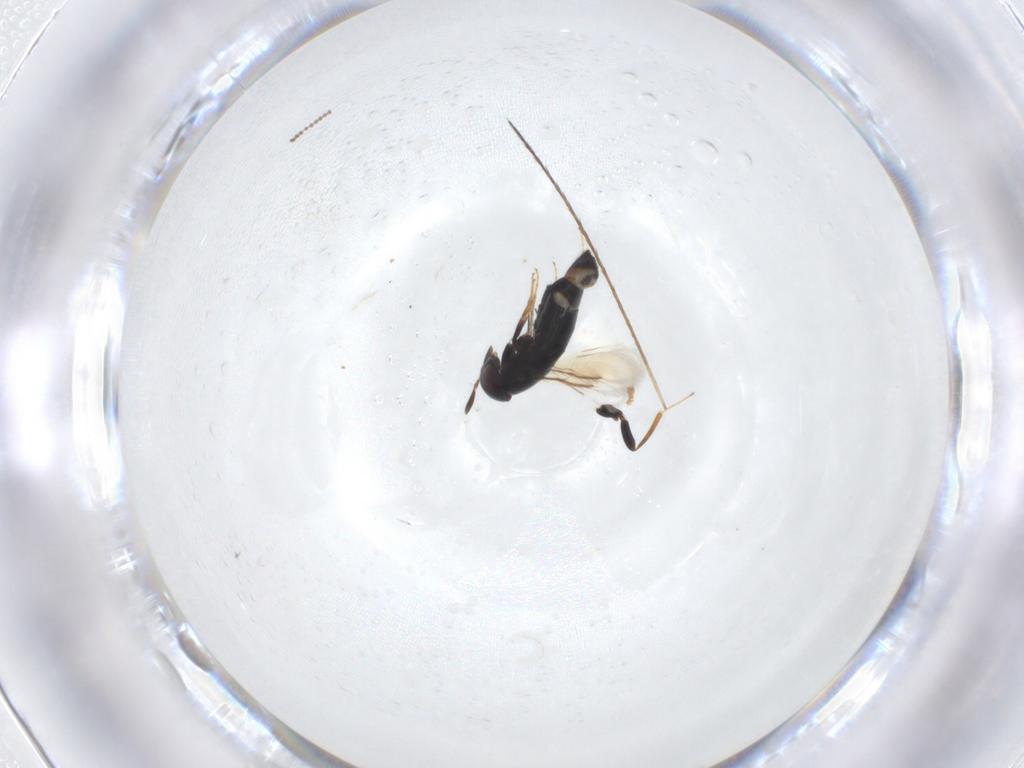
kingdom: Animalia
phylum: Arthropoda
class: Insecta
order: Hymenoptera
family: Signiphoridae
